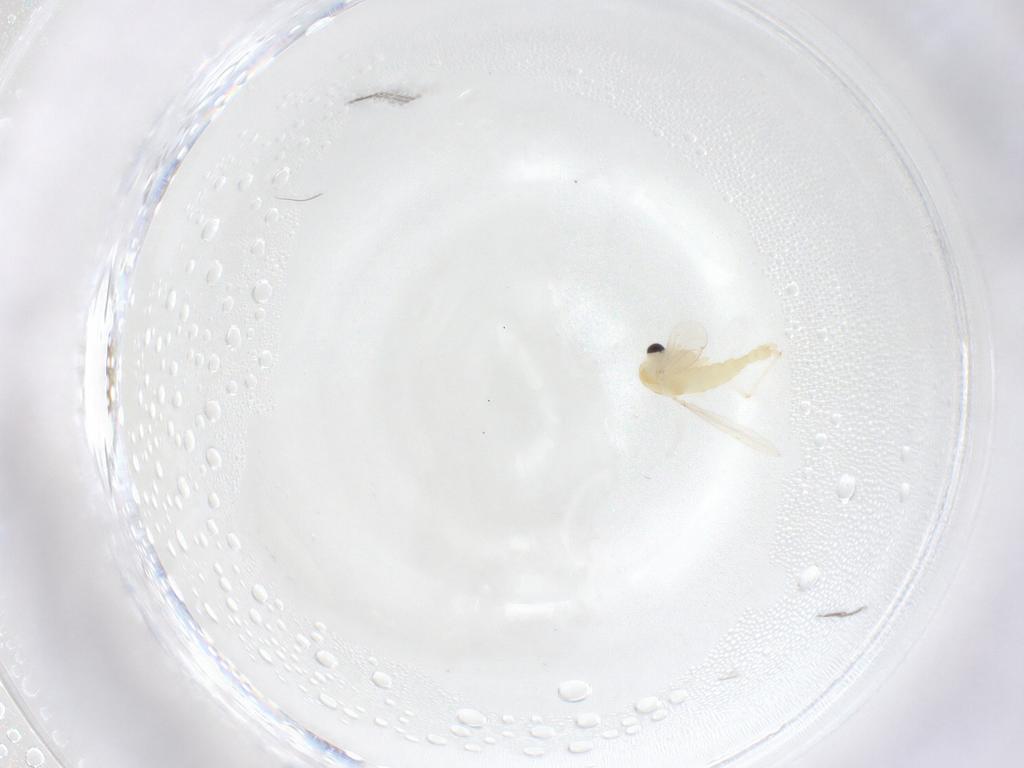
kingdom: Animalia
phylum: Arthropoda
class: Insecta
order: Diptera
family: Chironomidae
